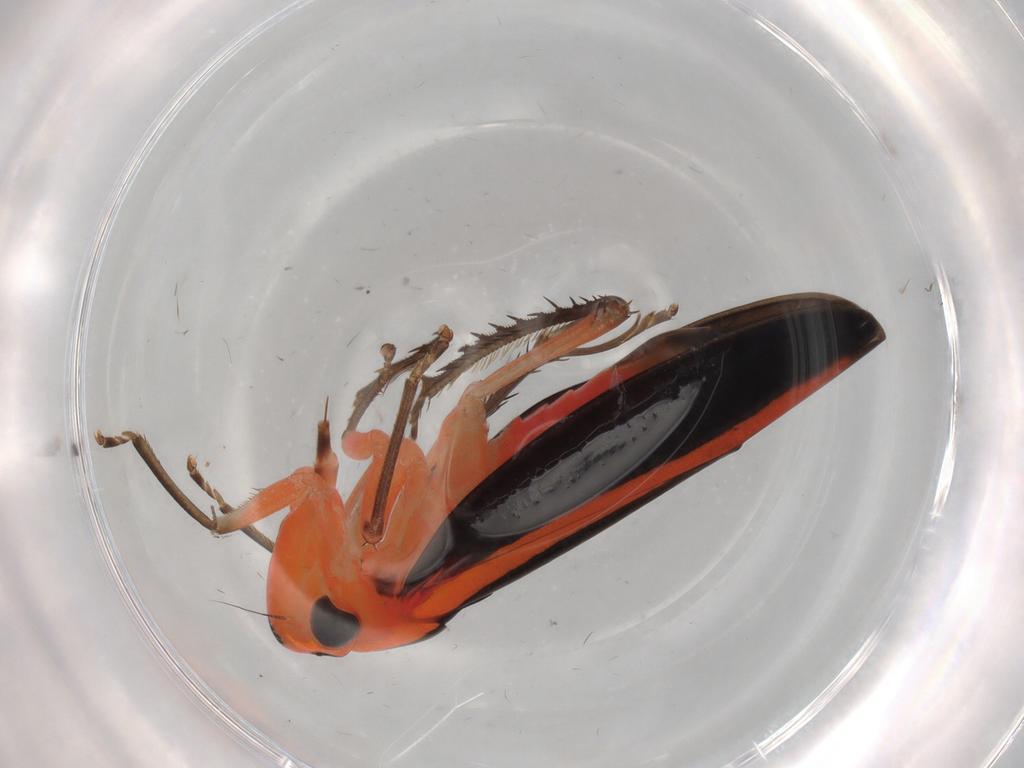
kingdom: Animalia
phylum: Arthropoda
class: Insecta
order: Hemiptera
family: Cicadellidae
